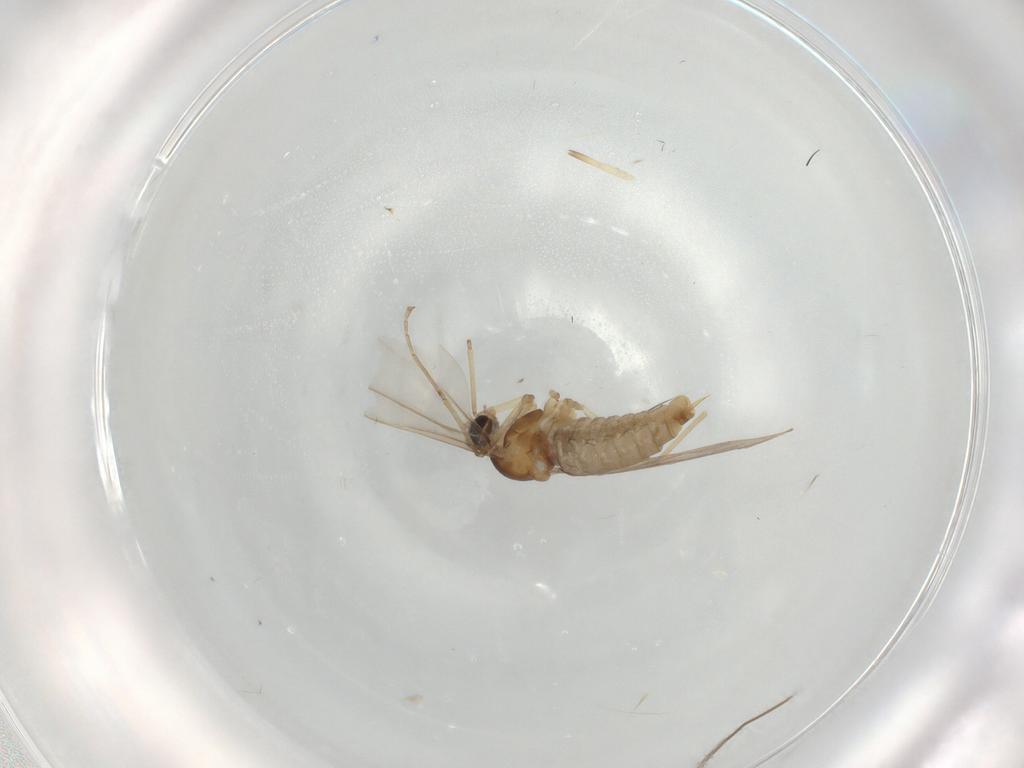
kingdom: Animalia
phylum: Arthropoda
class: Insecta
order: Diptera
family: Cecidomyiidae
